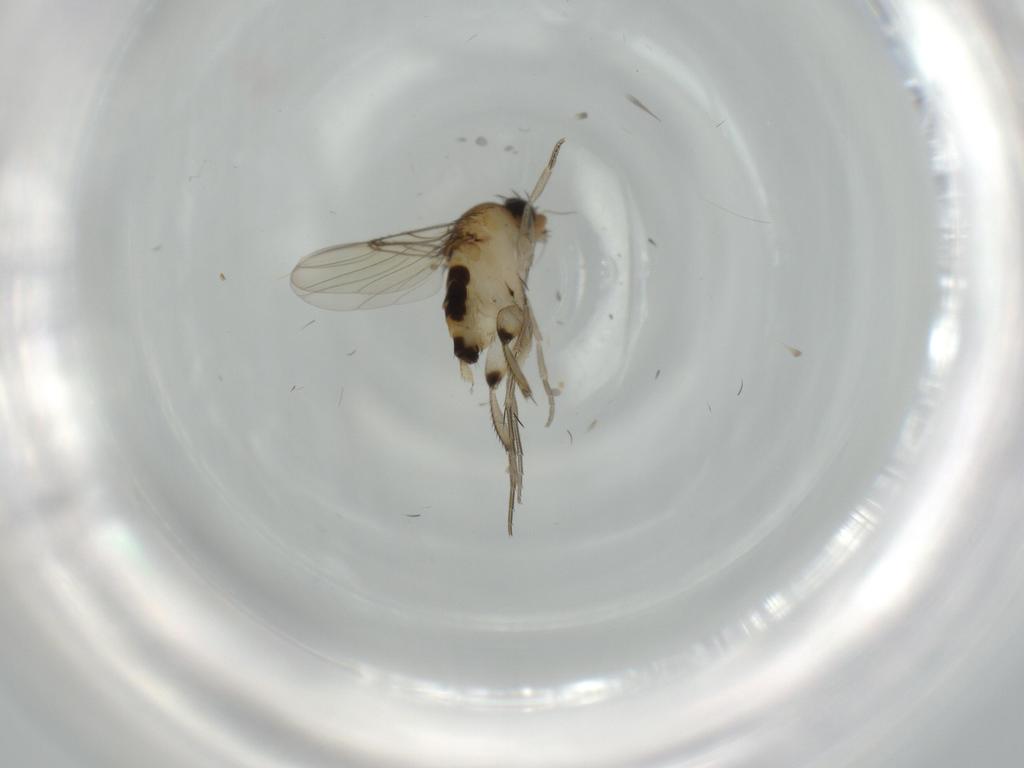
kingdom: Animalia
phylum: Arthropoda
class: Insecta
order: Diptera
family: Phoridae
